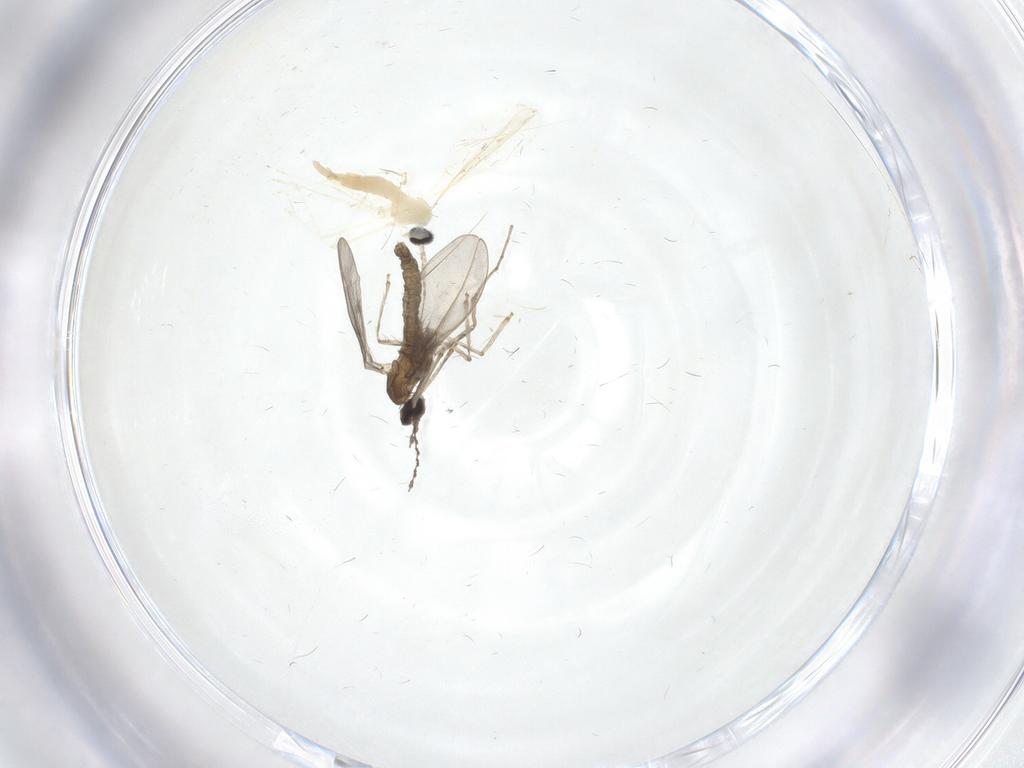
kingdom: Animalia
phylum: Arthropoda
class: Insecta
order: Diptera
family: Cecidomyiidae
